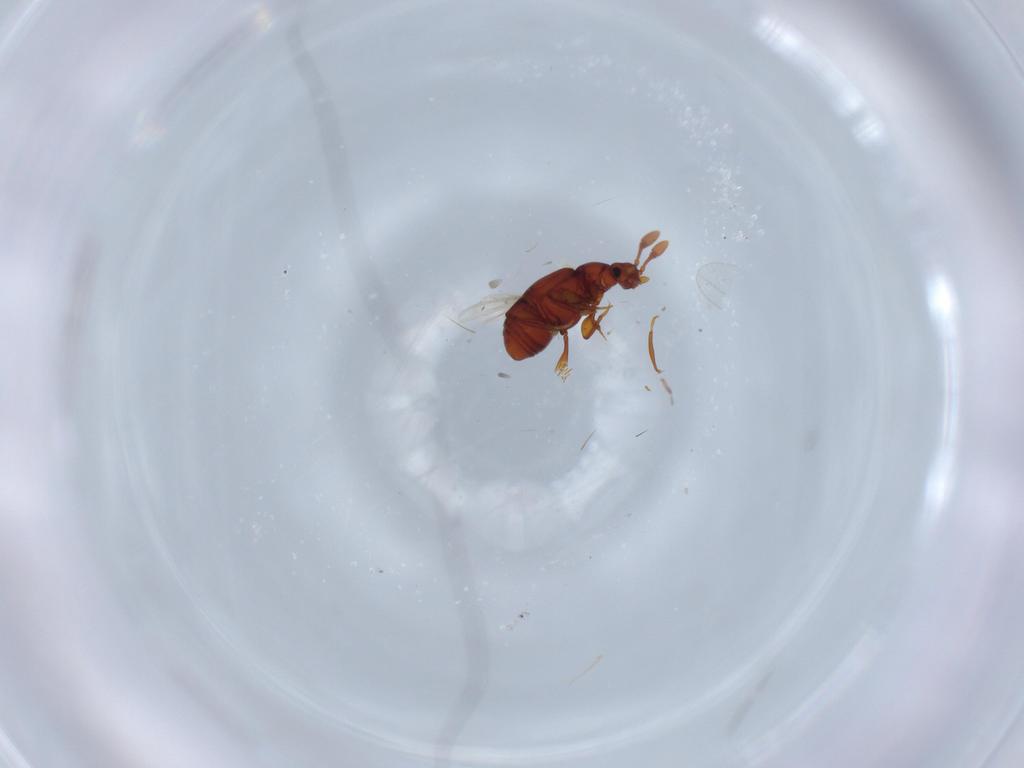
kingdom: Animalia
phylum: Arthropoda
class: Insecta
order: Coleoptera
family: Staphylinidae
